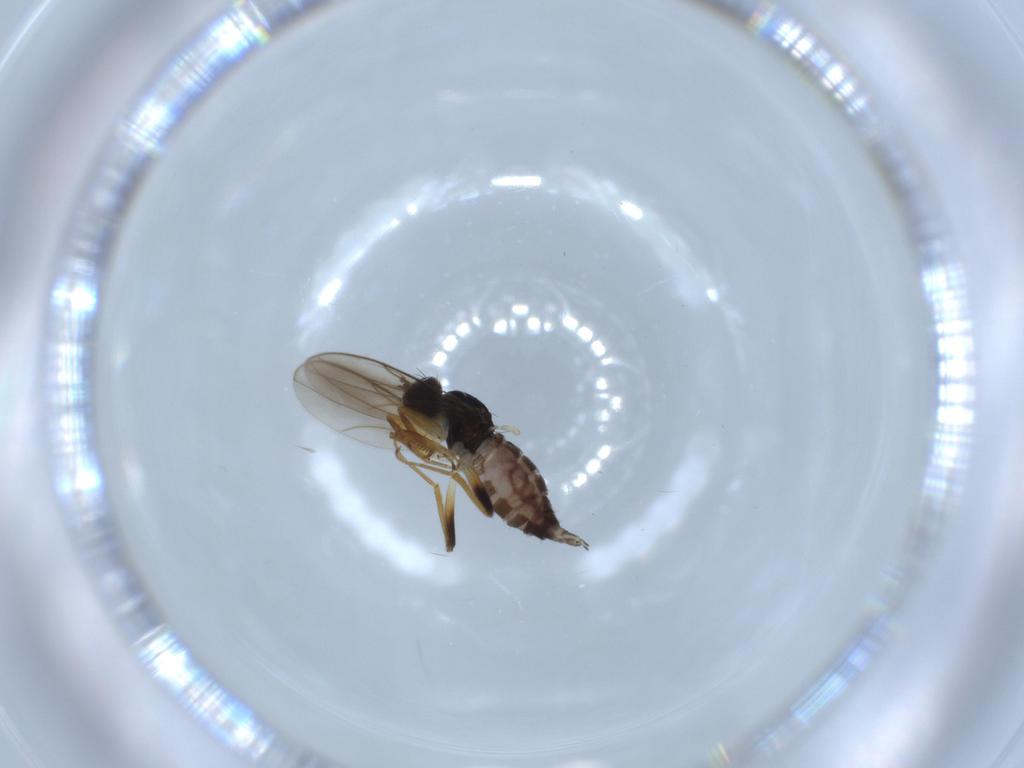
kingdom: Animalia
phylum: Arthropoda
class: Insecta
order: Diptera
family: Hybotidae
